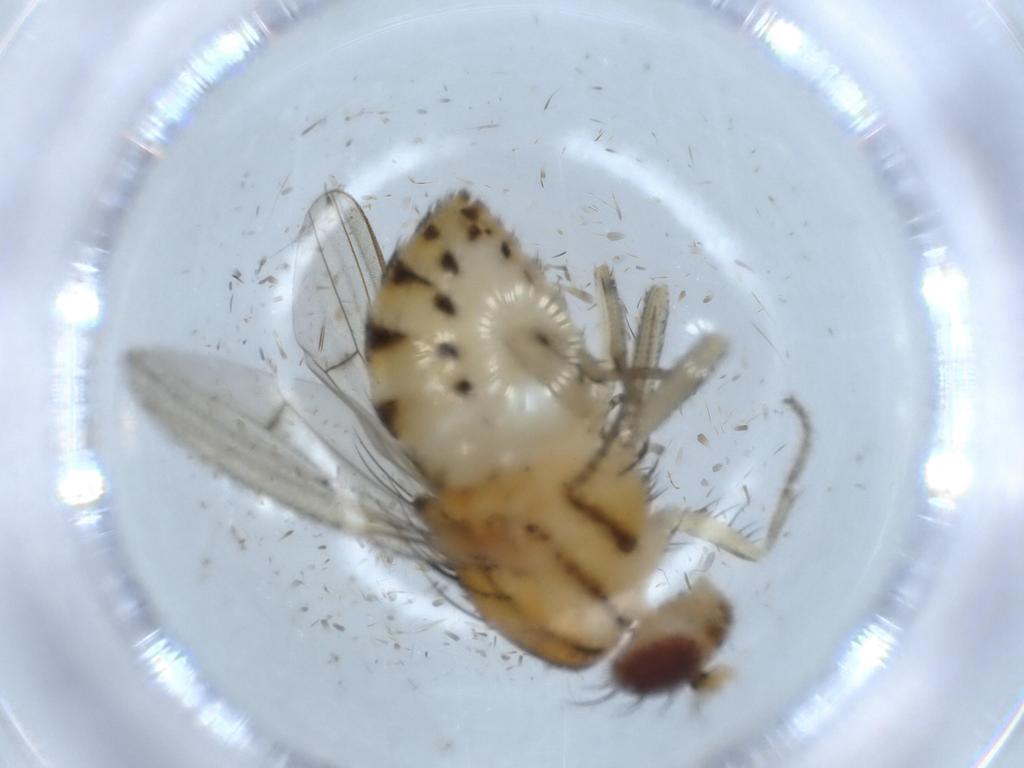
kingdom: Animalia
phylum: Arthropoda
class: Insecta
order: Diptera
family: Lauxaniidae
